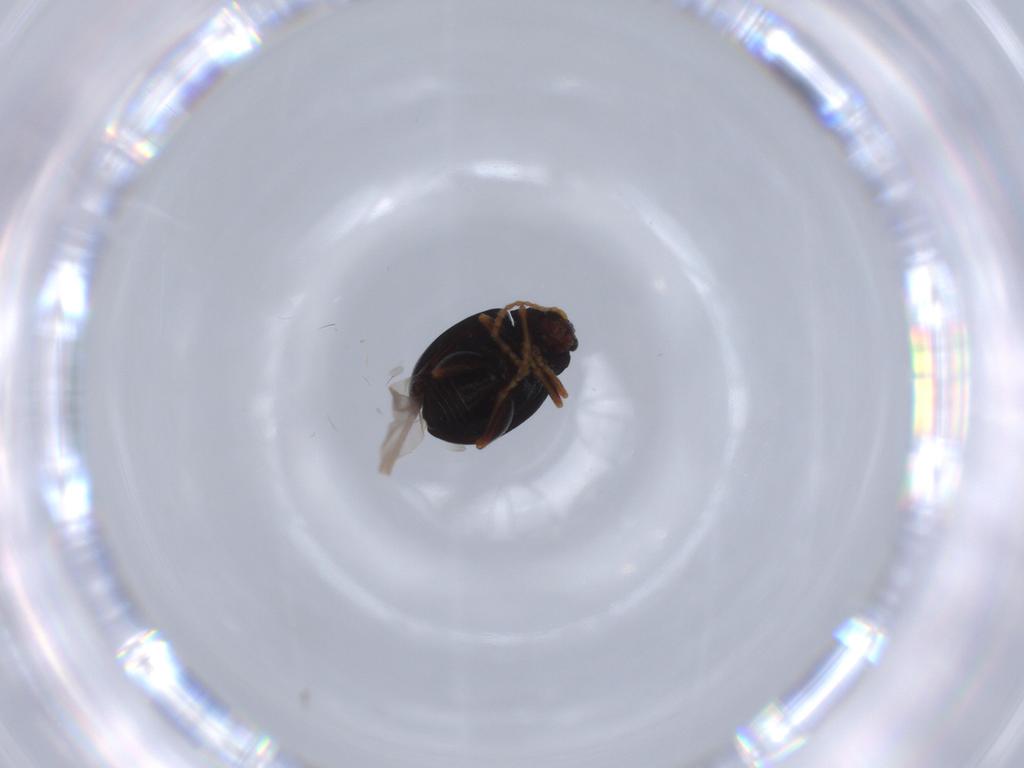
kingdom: Animalia
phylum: Arthropoda
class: Insecta
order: Coleoptera
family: Chrysomelidae
